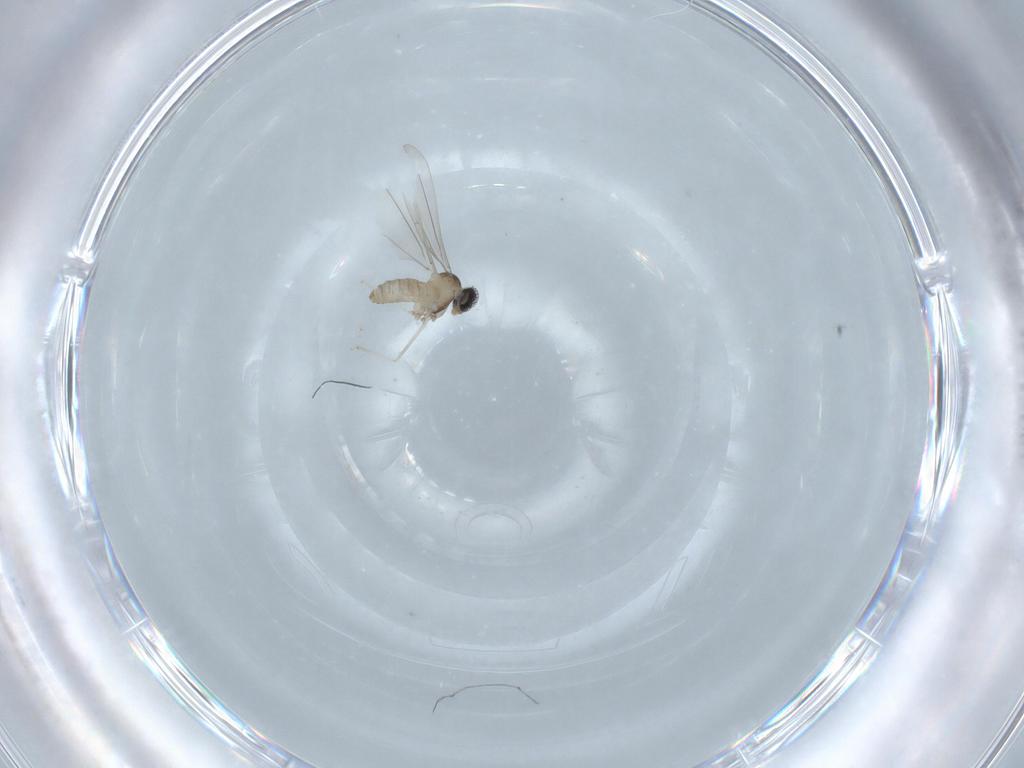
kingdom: Animalia
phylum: Arthropoda
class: Insecta
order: Diptera
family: Cecidomyiidae
